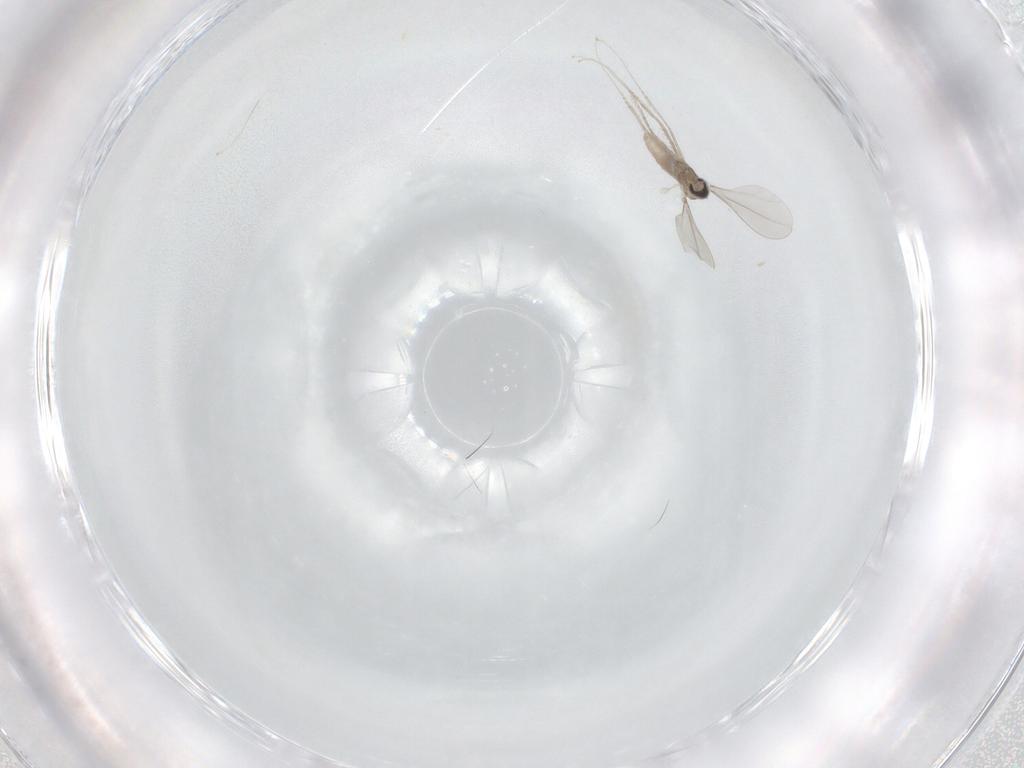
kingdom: Animalia
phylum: Arthropoda
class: Insecta
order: Diptera
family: Cecidomyiidae
